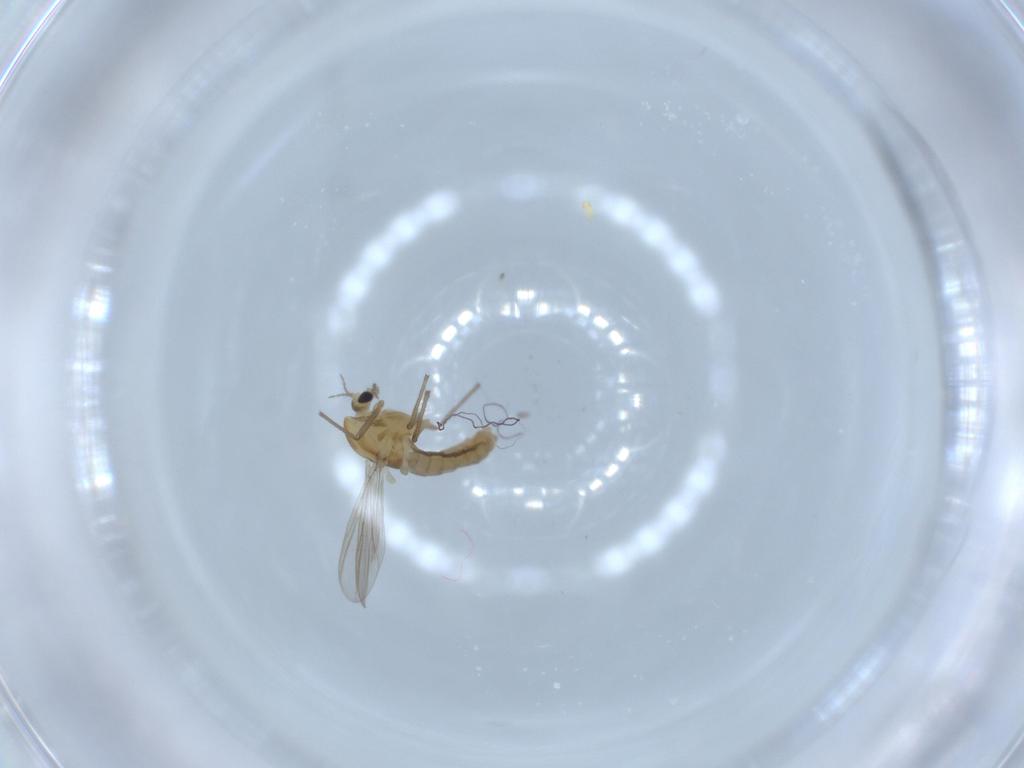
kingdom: Animalia
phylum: Arthropoda
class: Insecta
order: Diptera
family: Chironomidae
